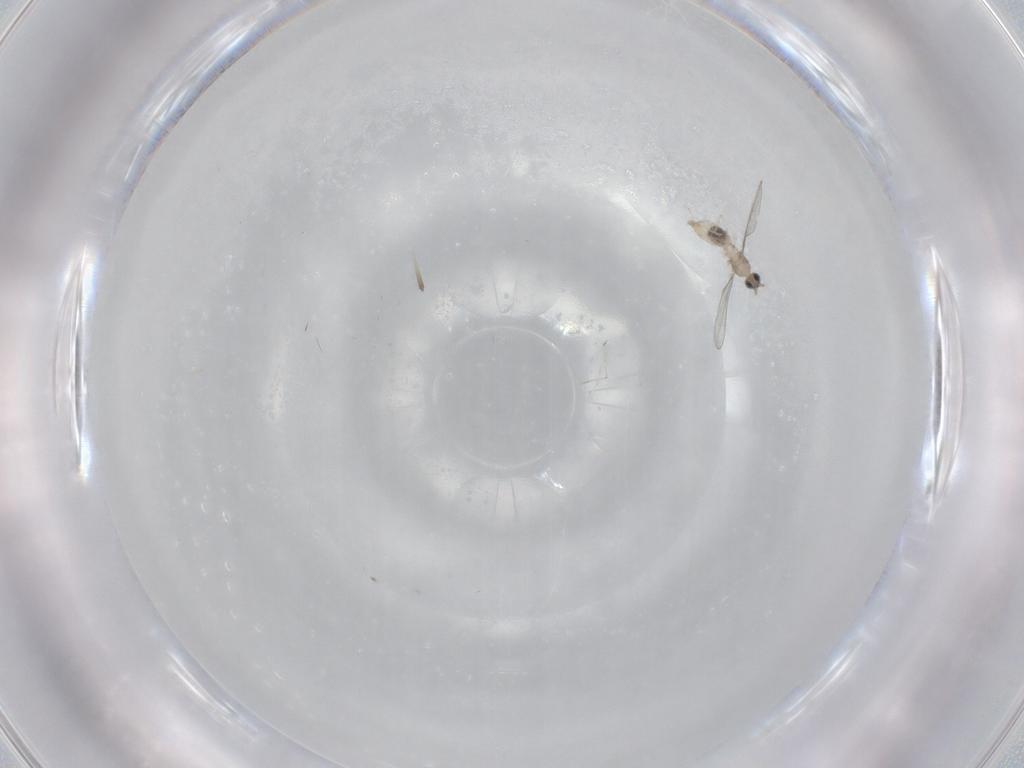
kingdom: Animalia
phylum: Arthropoda
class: Insecta
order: Diptera
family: Cecidomyiidae
